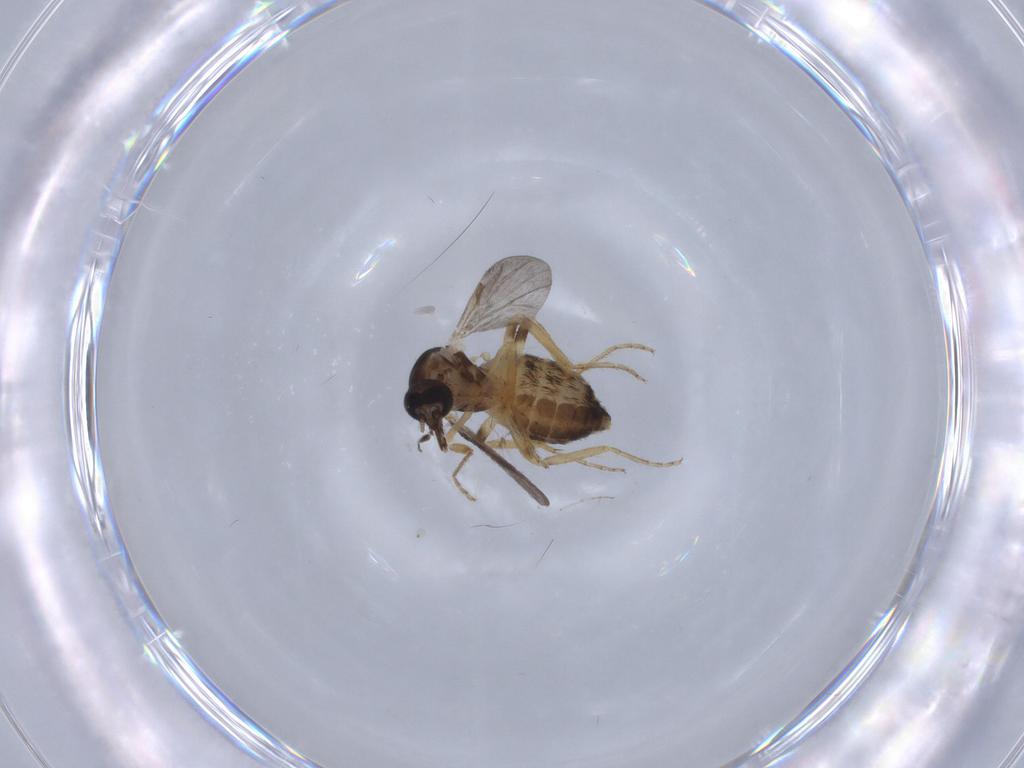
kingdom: Animalia
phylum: Arthropoda
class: Insecta
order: Diptera
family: Ceratopogonidae
